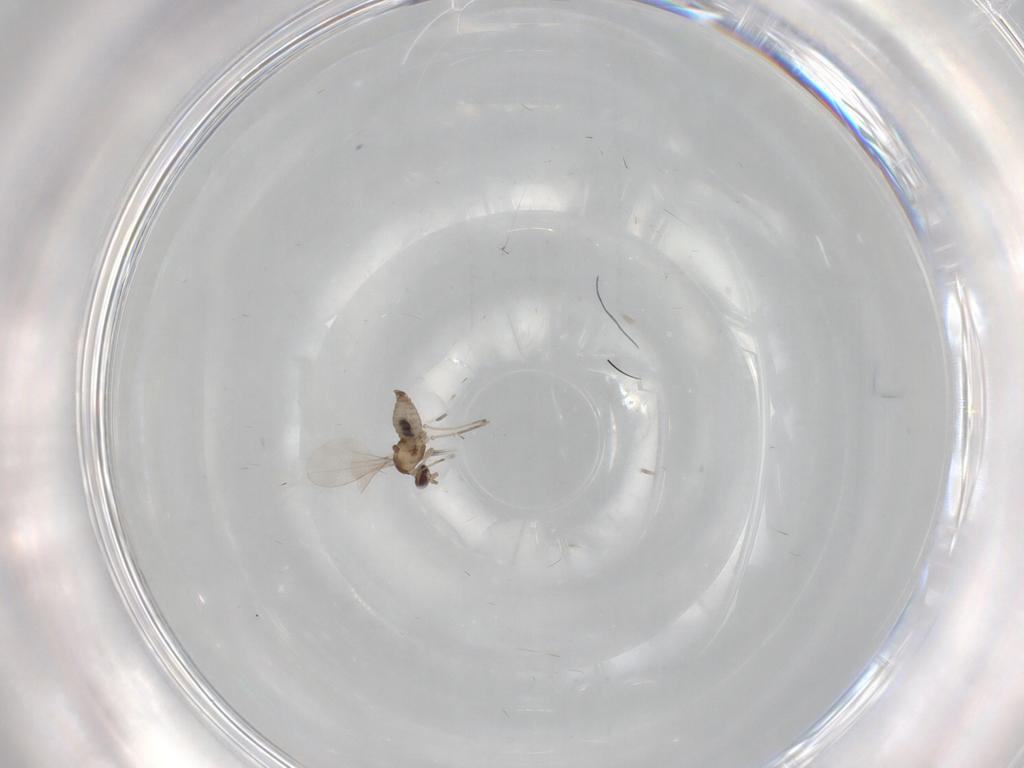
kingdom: Animalia
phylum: Arthropoda
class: Insecta
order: Diptera
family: Cecidomyiidae
